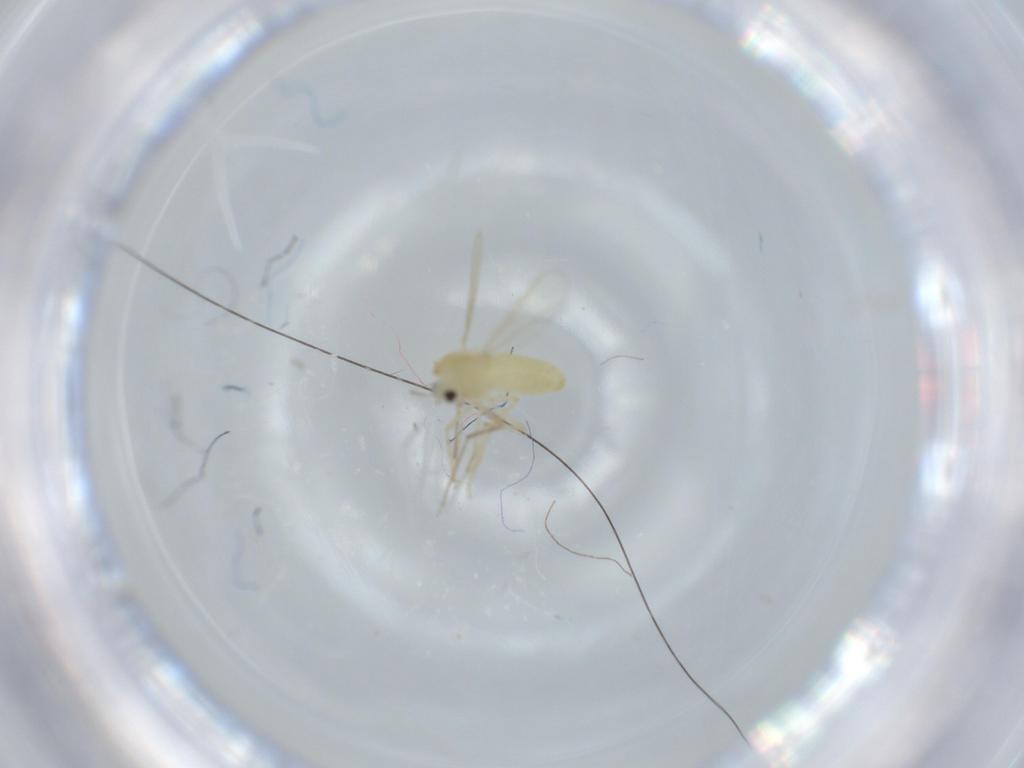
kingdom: Animalia
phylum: Arthropoda
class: Insecta
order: Diptera
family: Chironomidae
